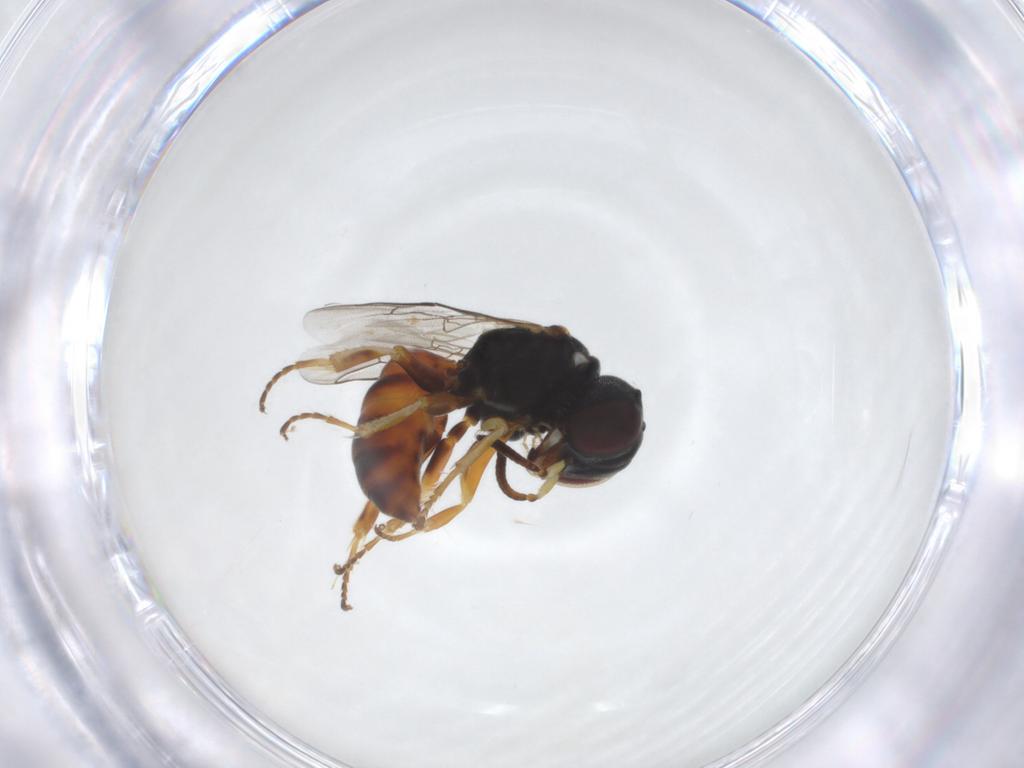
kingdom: Animalia
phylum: Arthropoda
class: Insecta
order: Hymenoptera
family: Crabronidae
